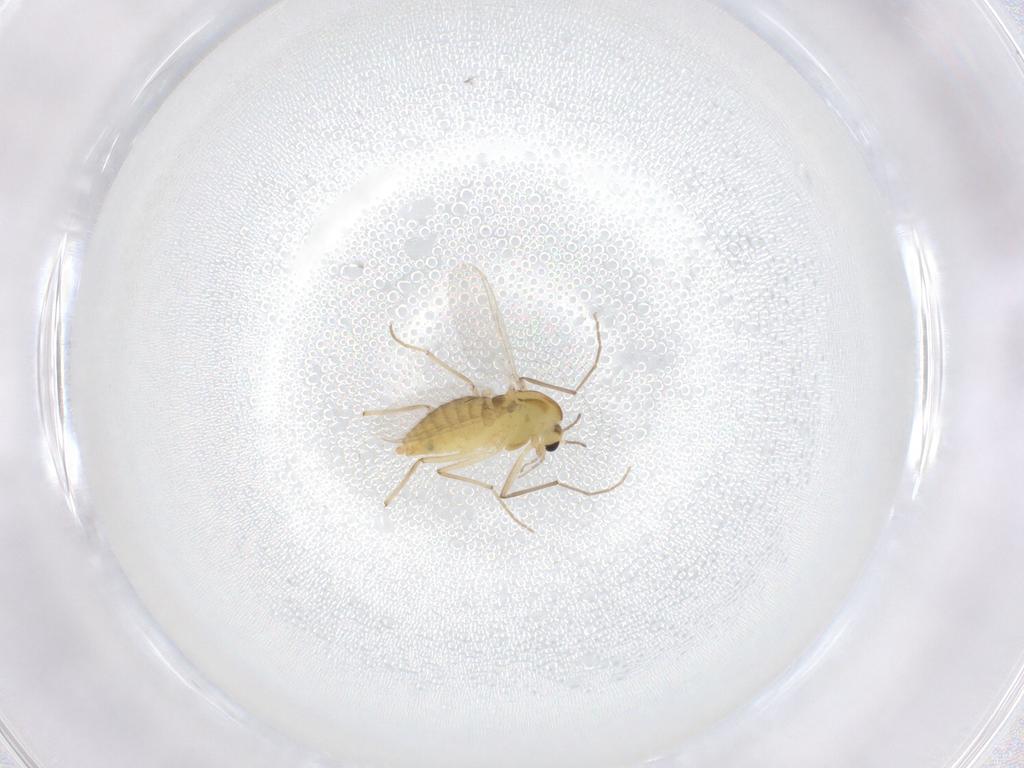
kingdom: Animalia
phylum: Arthropoda
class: Insecta
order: Diptera
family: Chironomidae
